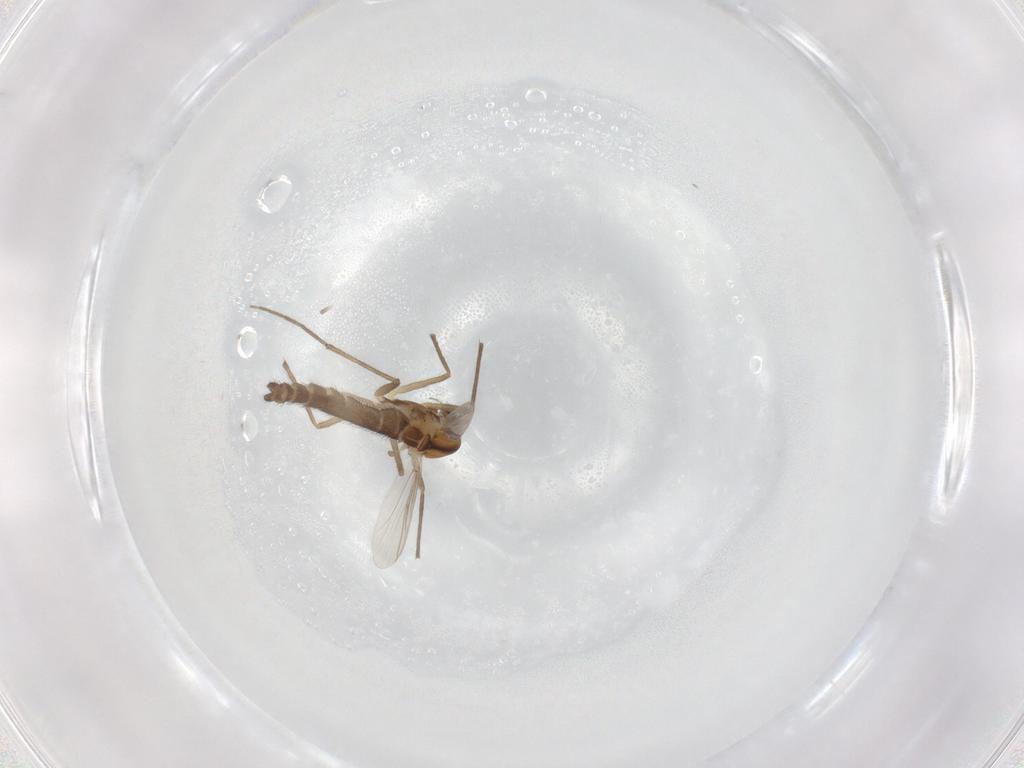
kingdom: Animalia
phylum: Arthropoda
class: Insecta
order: Diptera
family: Chironomidae
